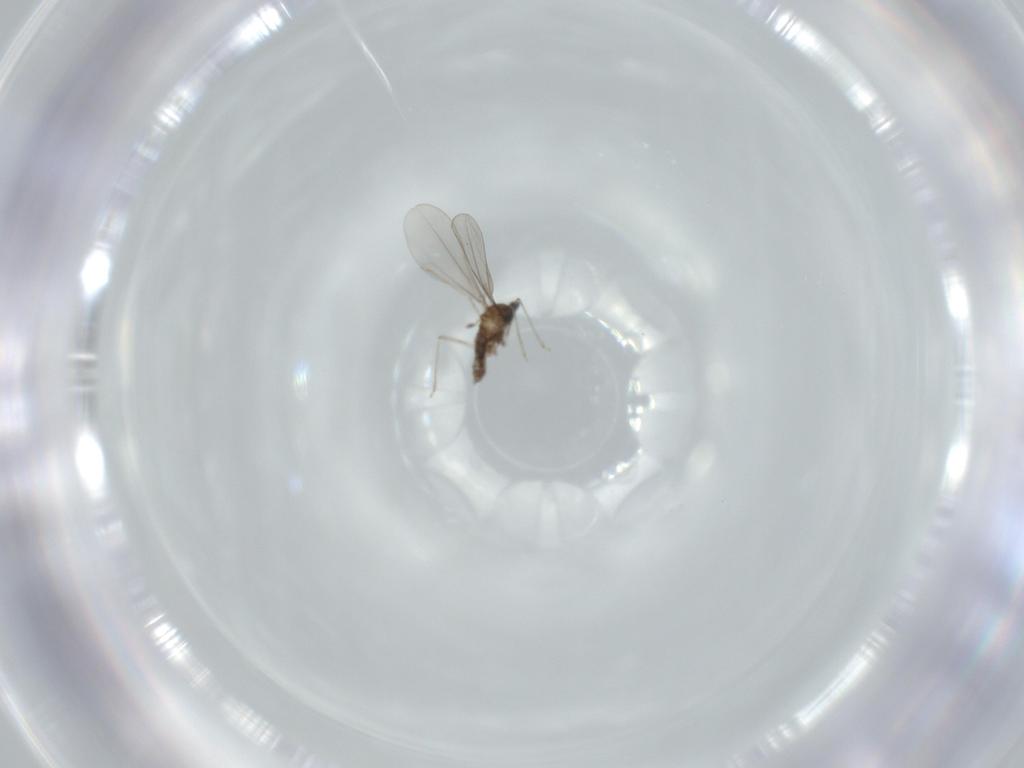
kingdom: Animalia
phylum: Arthropoda
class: Insecta
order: Diptera
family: Cecidomyiidae
